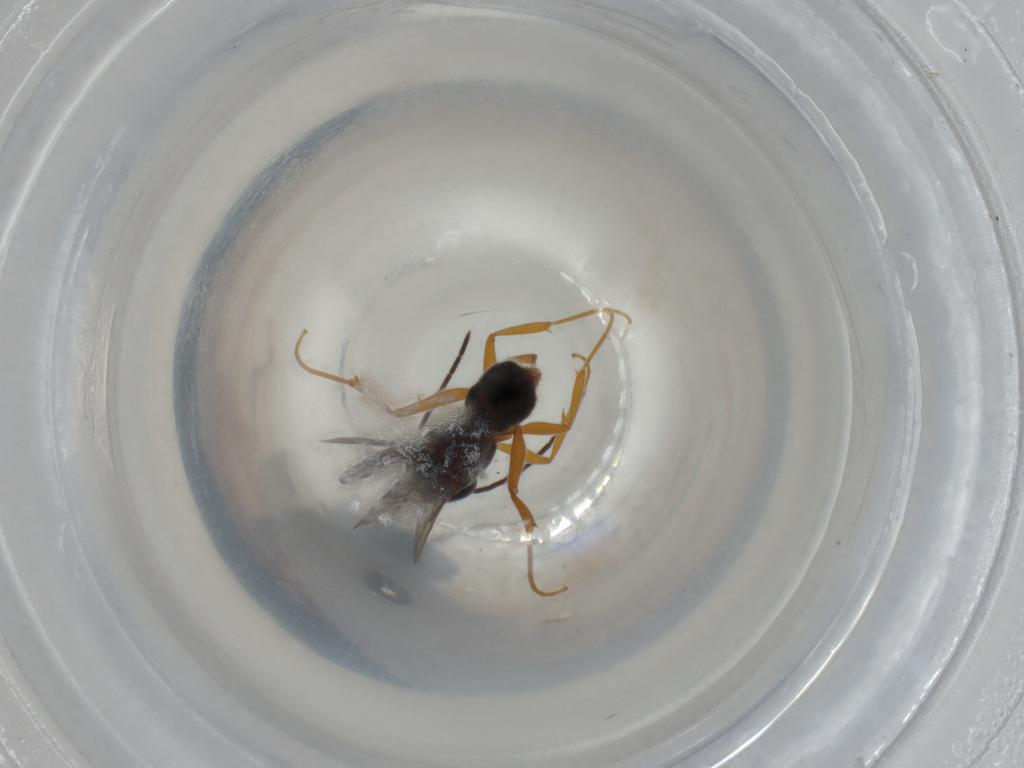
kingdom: Animalia
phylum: Arthropoda
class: Insecta
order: Hymenoptera
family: Formicidae
